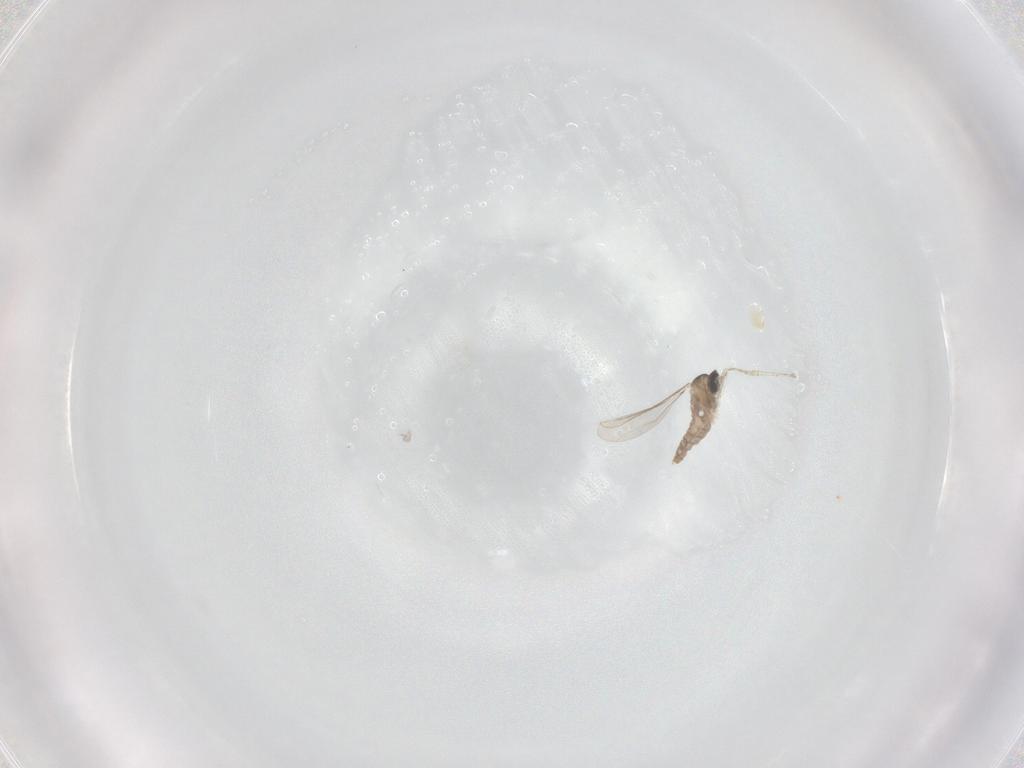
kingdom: Animalia
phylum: Arthropoda
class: Insecta
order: Diptera
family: Cecidomyiidae
